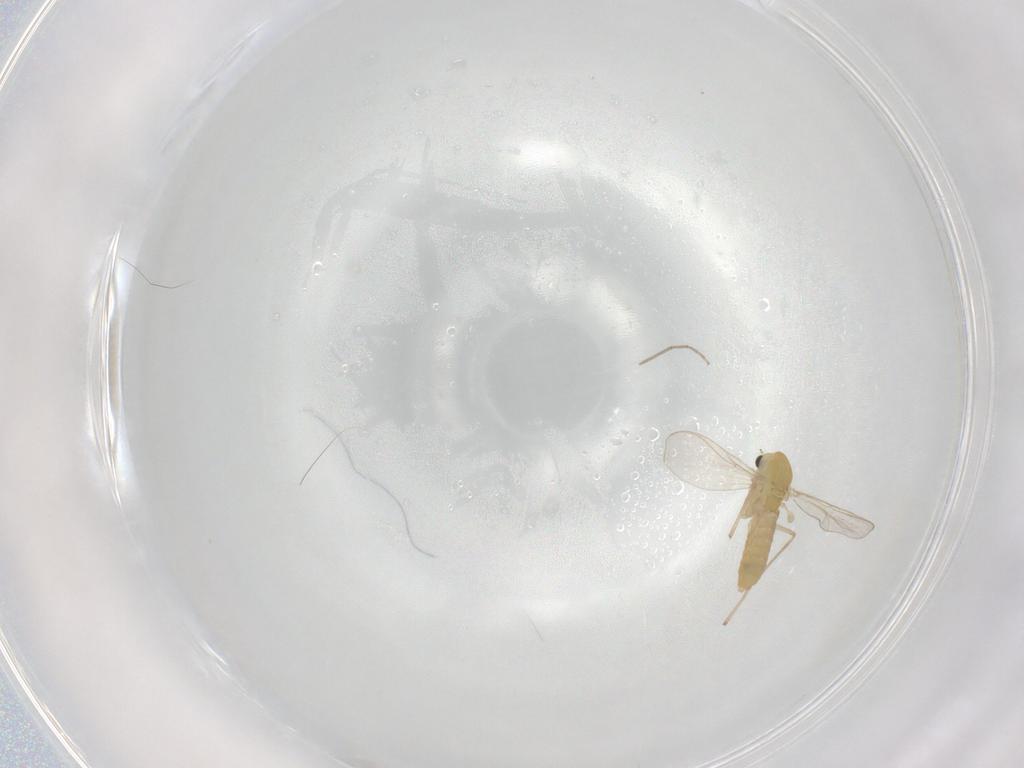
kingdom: Animalia
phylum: Arthropoda
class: Insecta
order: Diptera
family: Chironomidae
